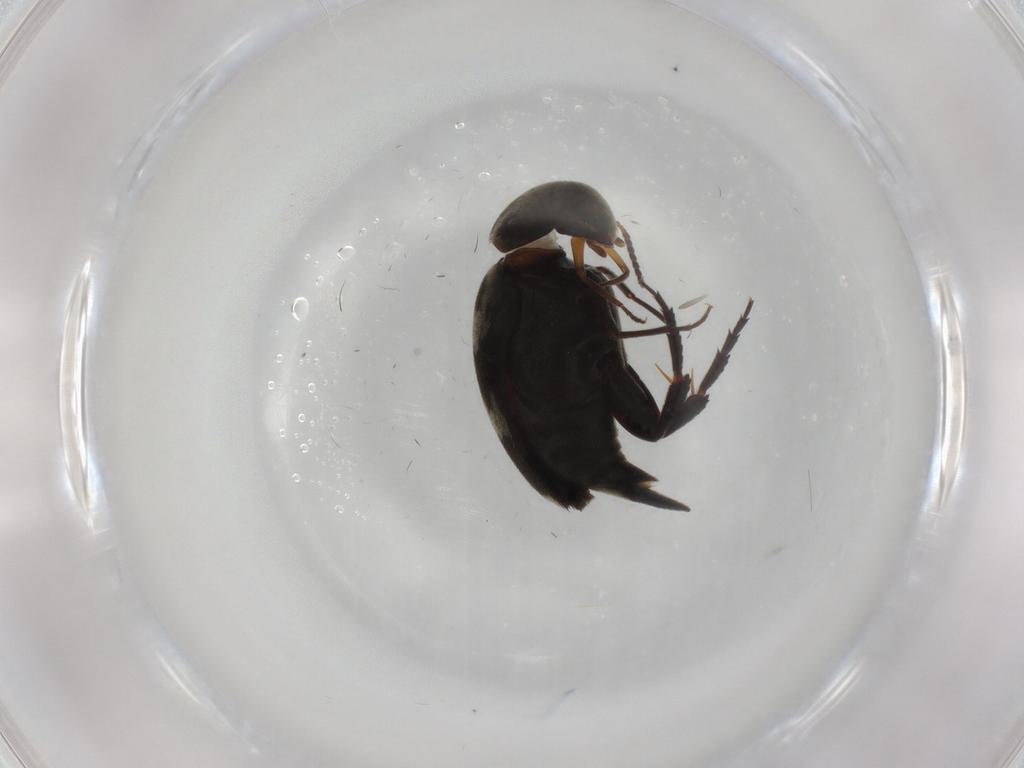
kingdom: Animalia
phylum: Arthropoda
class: Insecta
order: Coleoptera
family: Mordellidae
